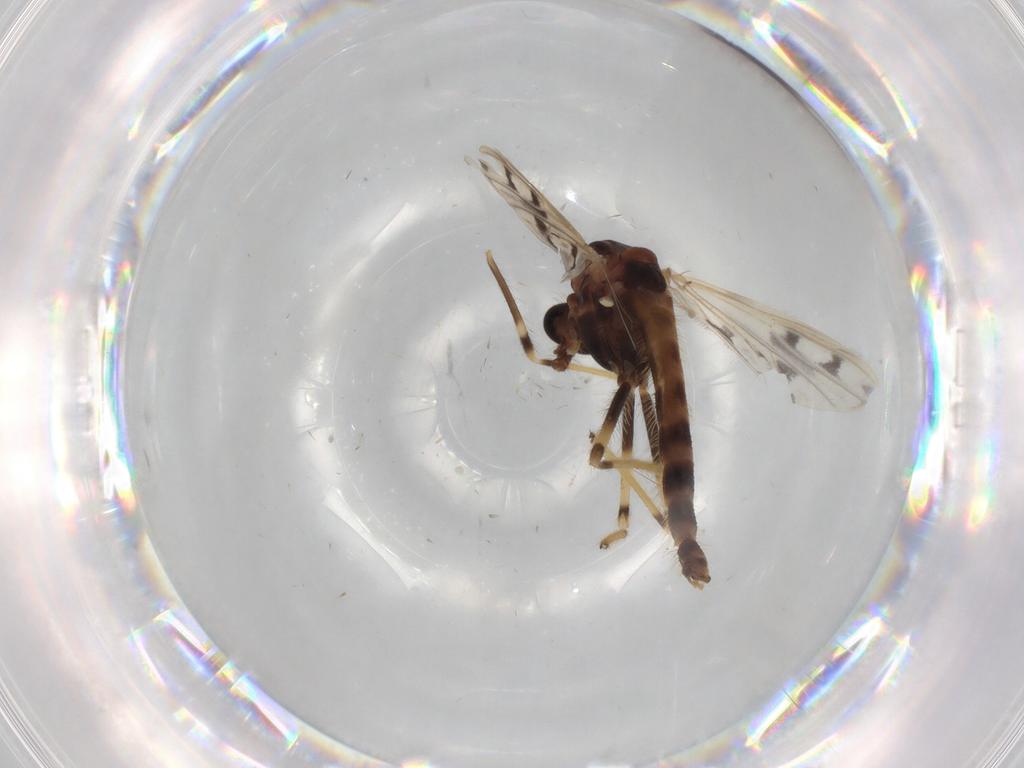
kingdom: Animalia
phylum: Arthropoda
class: Insecta
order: Diptera
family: Chironomidae
